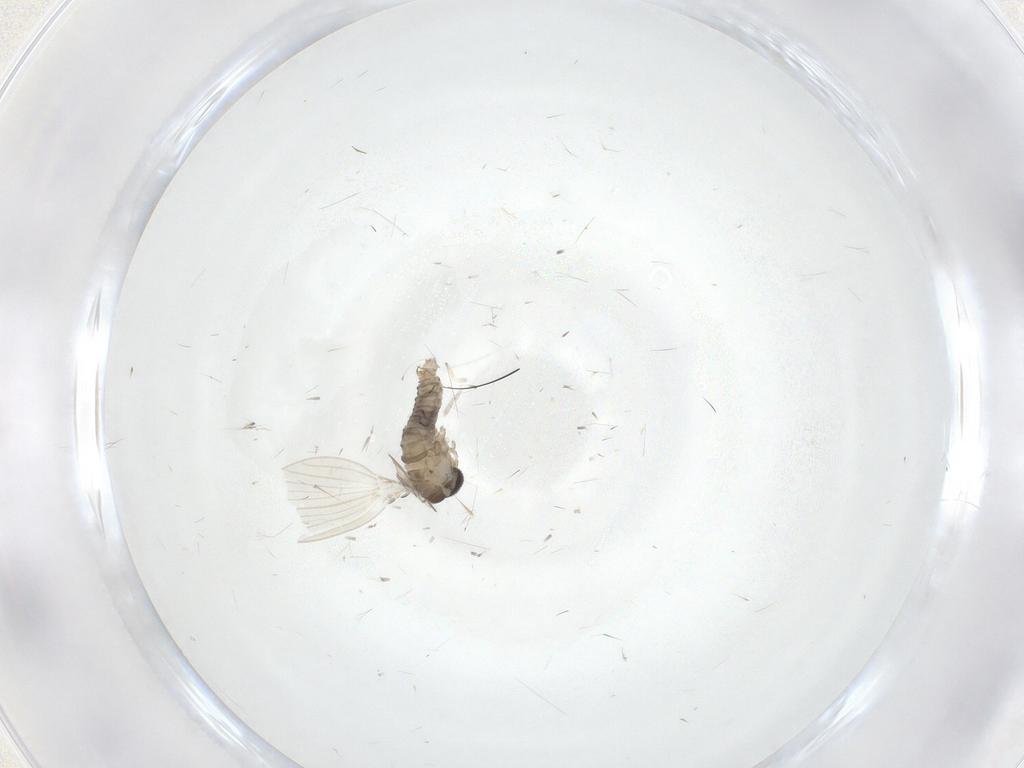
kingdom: Animalia
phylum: Arthropoda
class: Insecta
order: Diptera
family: Psychodidae
